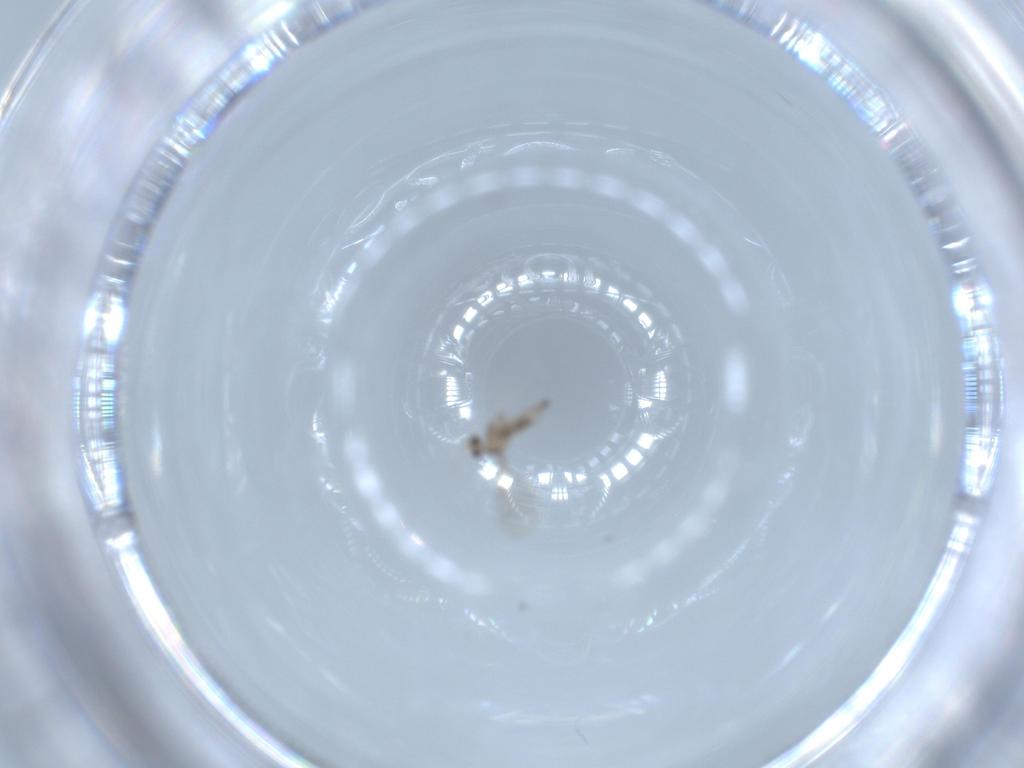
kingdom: Animalia
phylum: Arthropoda
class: Insecta
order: Diptera
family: Cecidomyiidae
